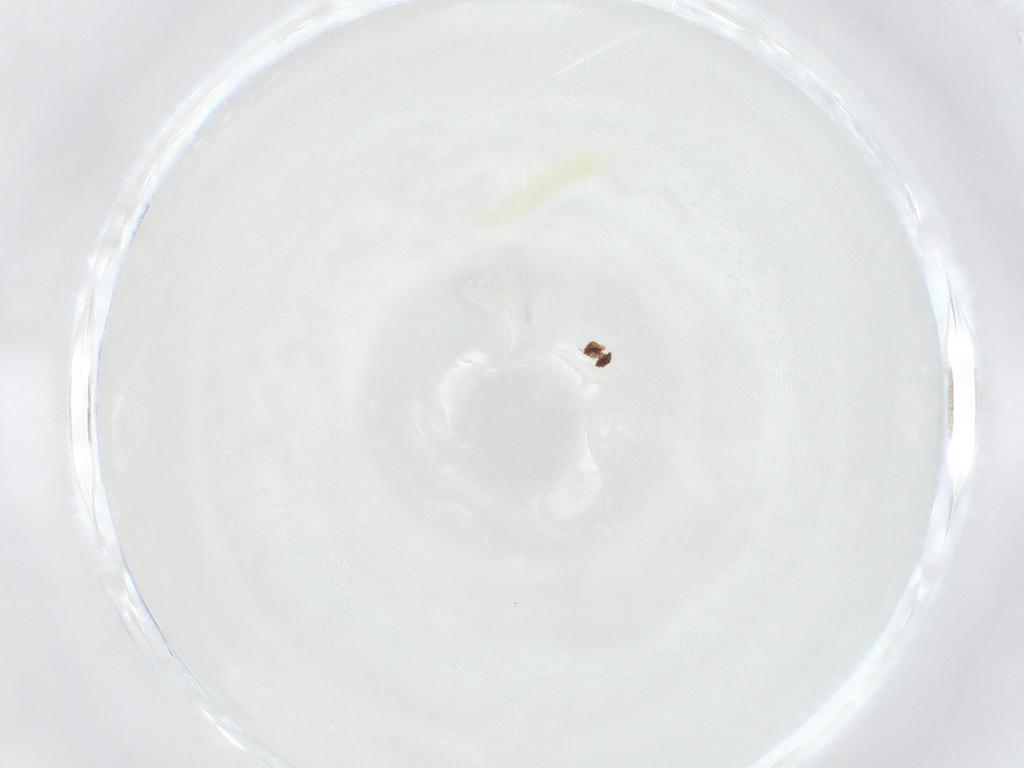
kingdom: Animalia
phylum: Arthropoda
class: Collembola
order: Poduromorpha
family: Onychiuridae
